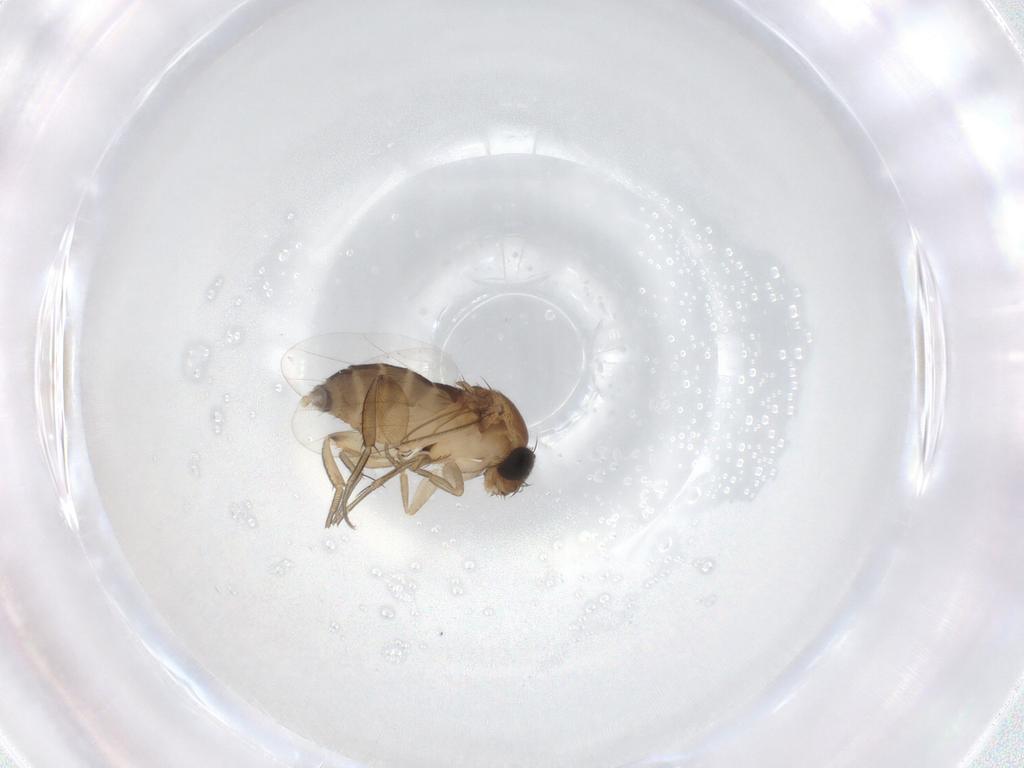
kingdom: Animalia
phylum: Arthropoda
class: Insecta
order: Diptera
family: Phoridae
